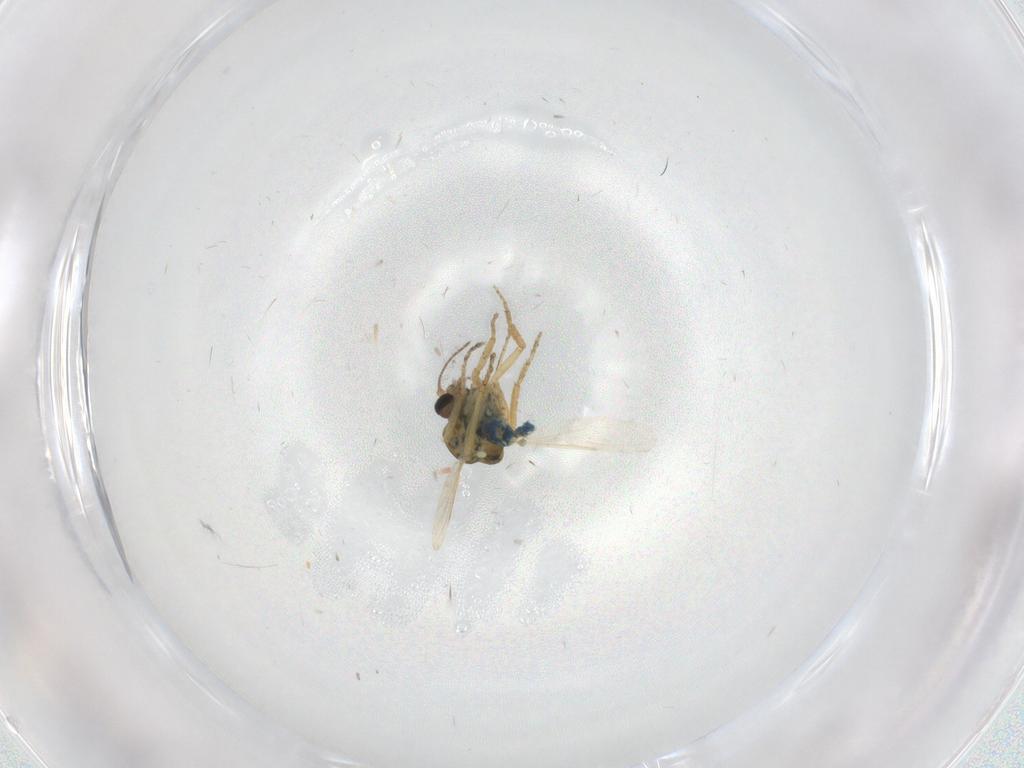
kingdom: Animalia
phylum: Arthropoda
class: Insecta
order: Diptera
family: Ceratopogonidae
